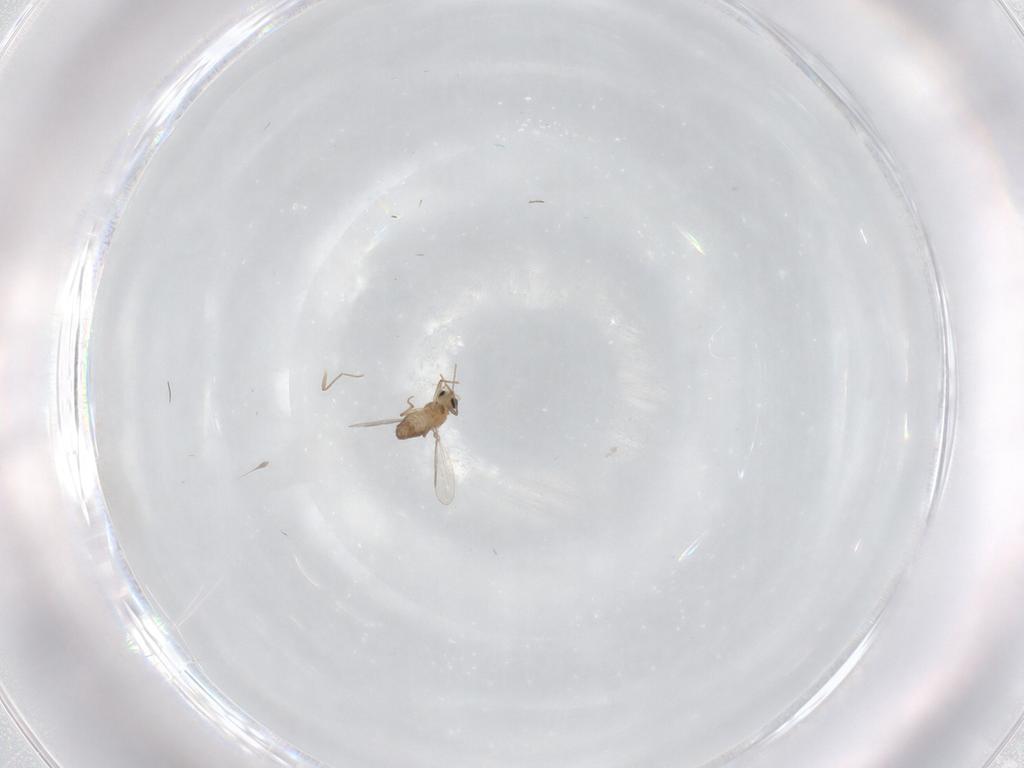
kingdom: Animalia
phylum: Arthropoda
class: Insecta
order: Diptera
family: Chironomidae
